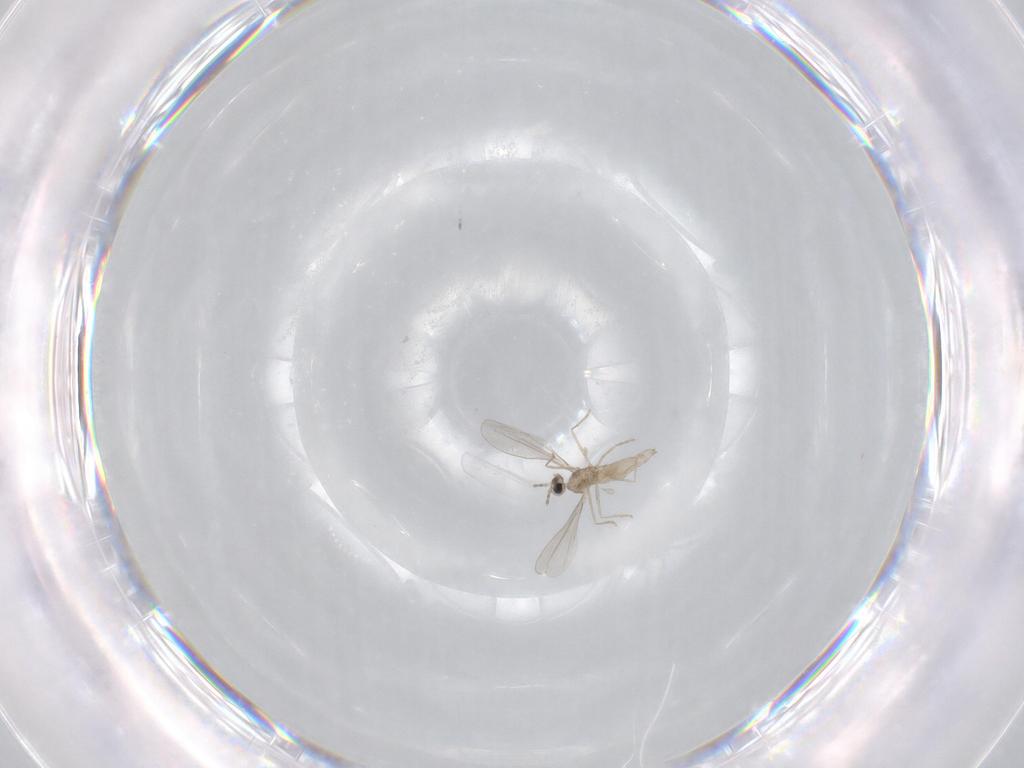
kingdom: Animalia
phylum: Arthropoda
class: Insecta
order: Diptera
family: Cecidomyiidae
